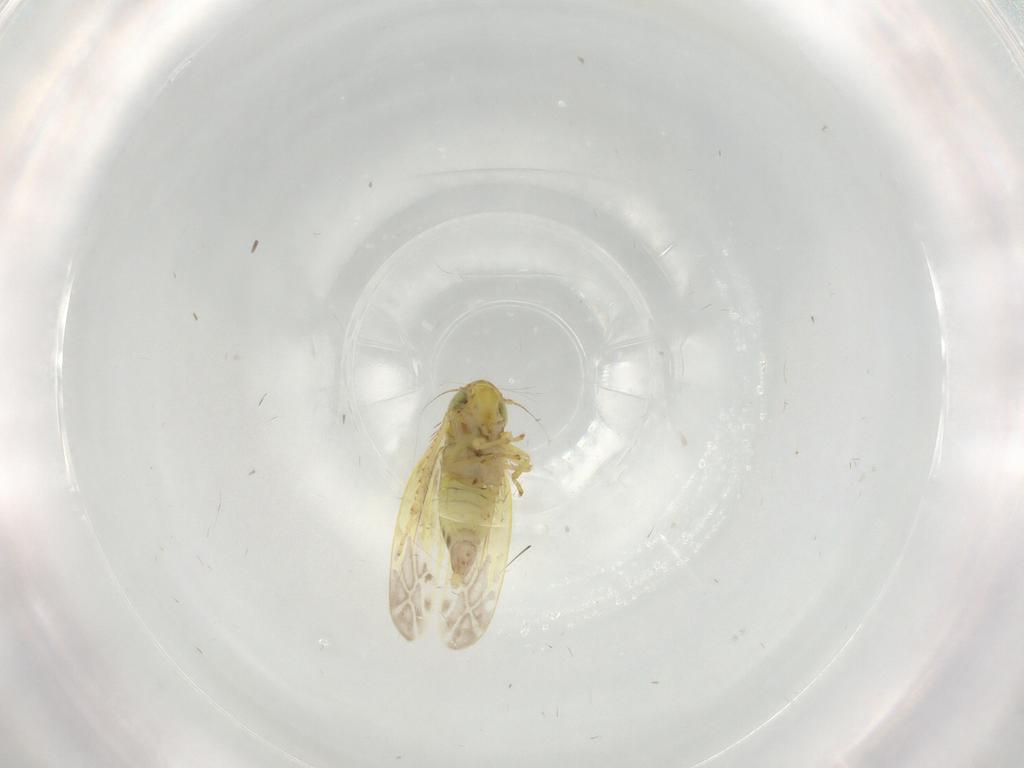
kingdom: Animalia
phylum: Arthropoda
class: Insecta
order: Hemiptera
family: Cicadellidae
